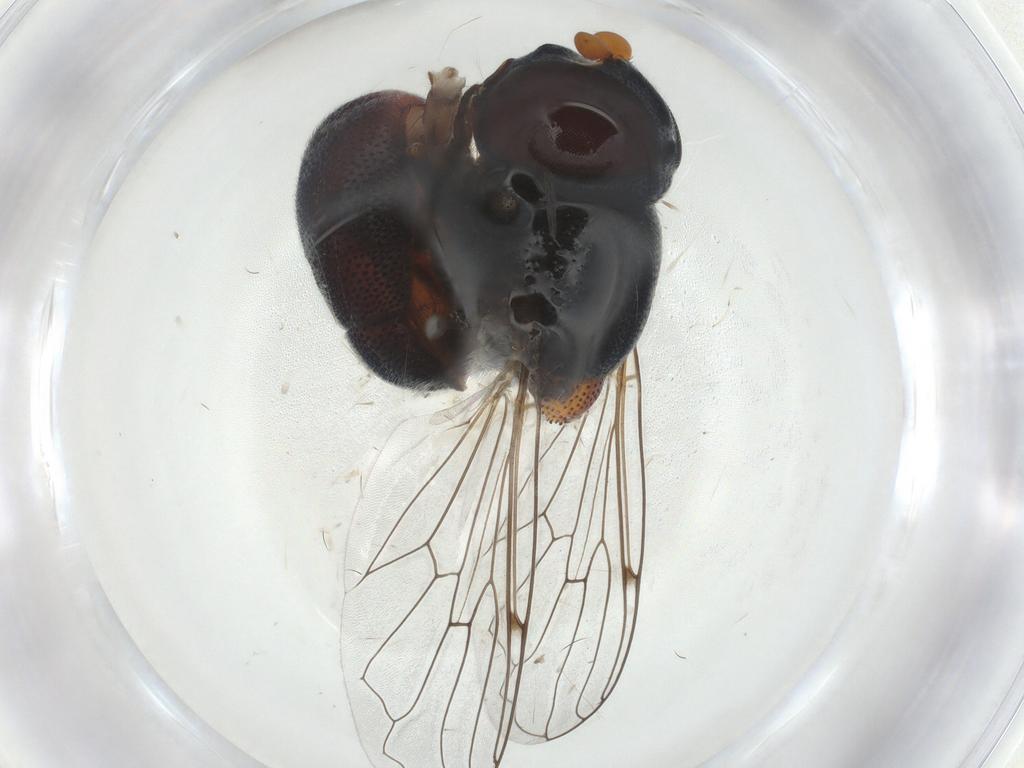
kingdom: Animalia
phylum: Arthropoda
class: Insecta
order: Diptera
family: Syrphidae
